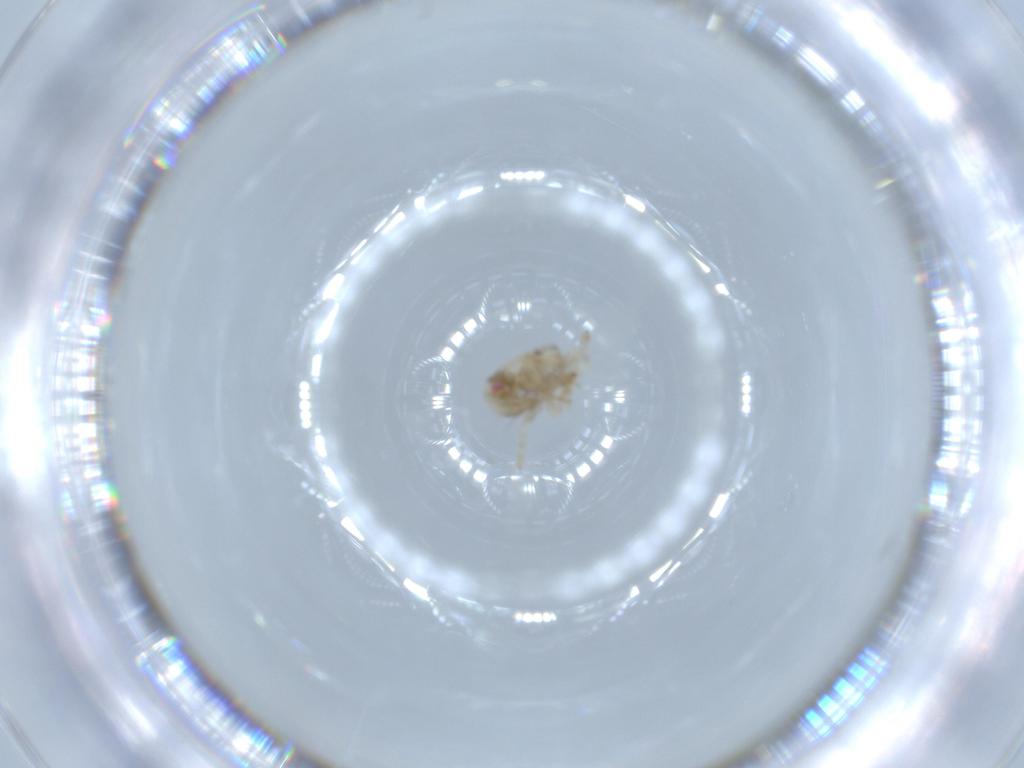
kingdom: Animalia
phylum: Arthropoda
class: Insecta
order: Hemiptera
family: Acanaloniidae
